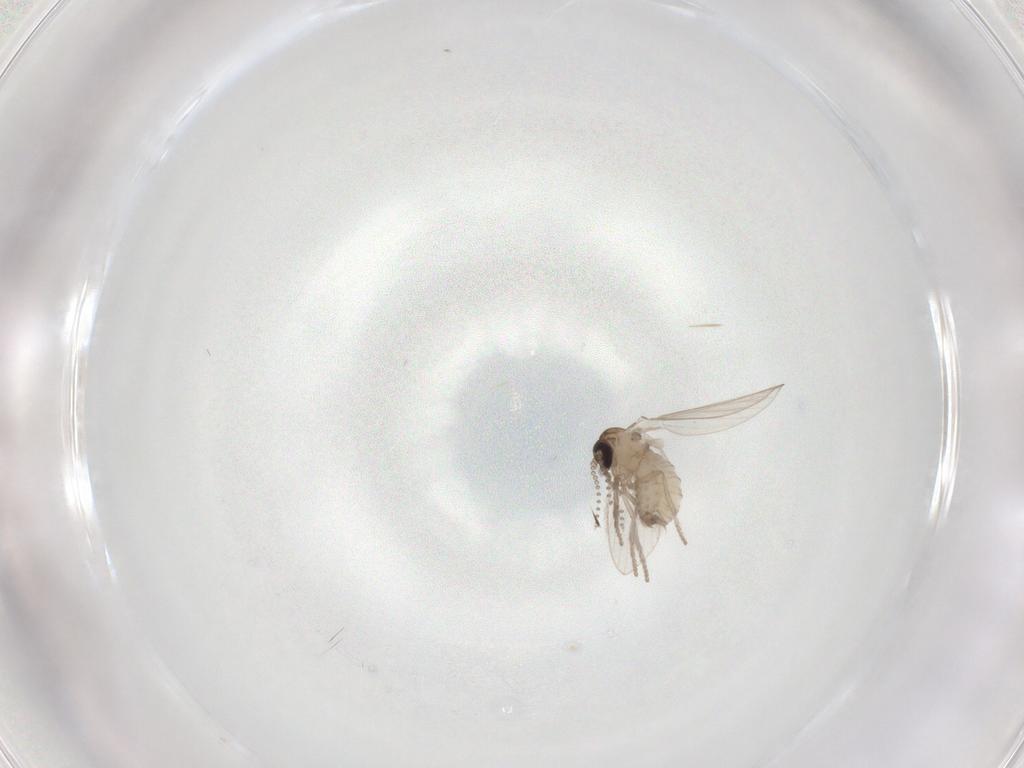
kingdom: Animalia
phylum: Arthropoda
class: Insecta
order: Diptera
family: Psychodidae
